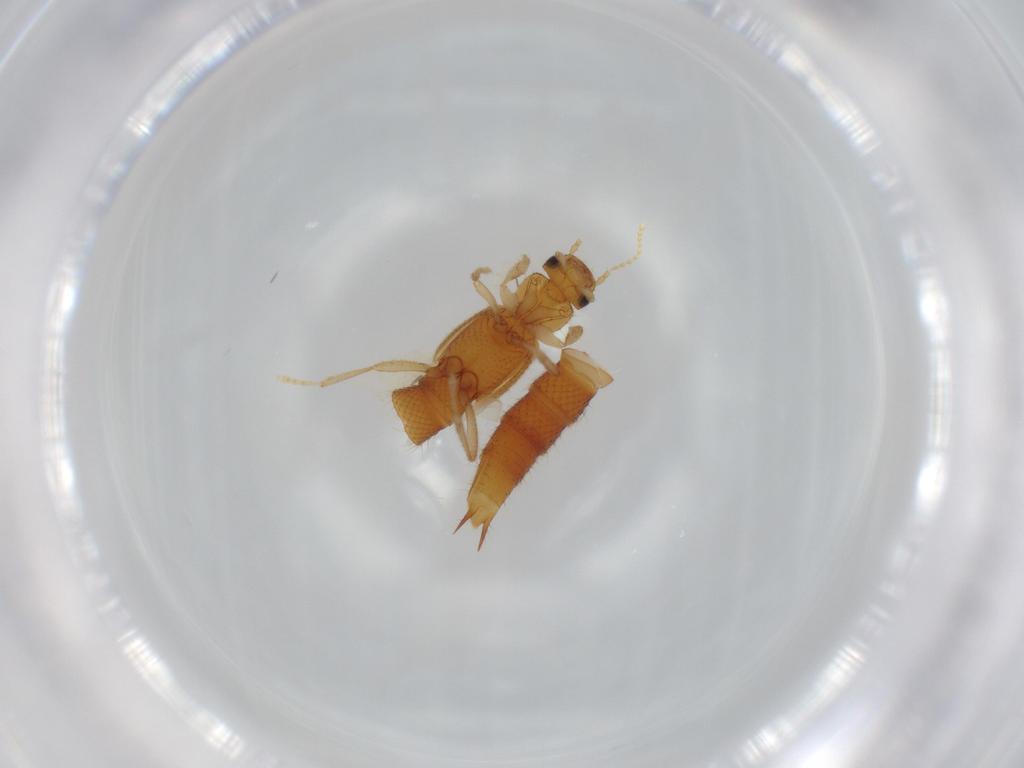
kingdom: Animalia
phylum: Arthropoda
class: Insecta
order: Coleoptera
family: Staphylinidae
